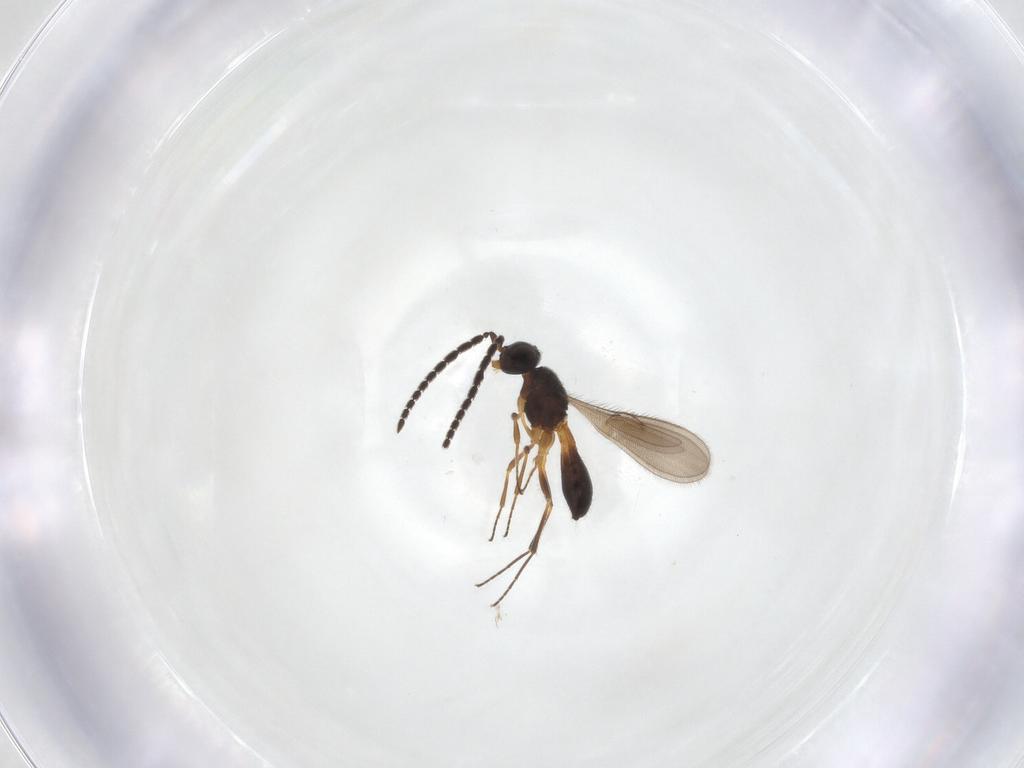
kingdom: Animalia
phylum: Arthropoda
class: Insecta
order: Hymenoptera
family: Scelionidae
